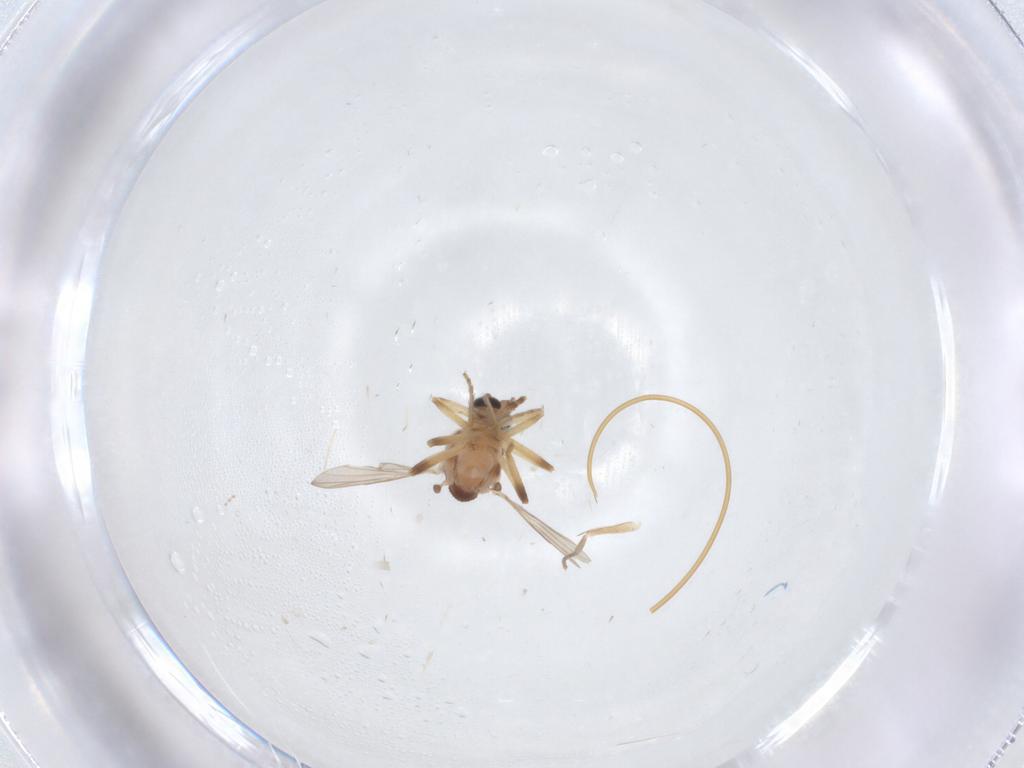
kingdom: Animalia
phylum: Arthropoda
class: Insecta
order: Diptera
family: Phoridae
